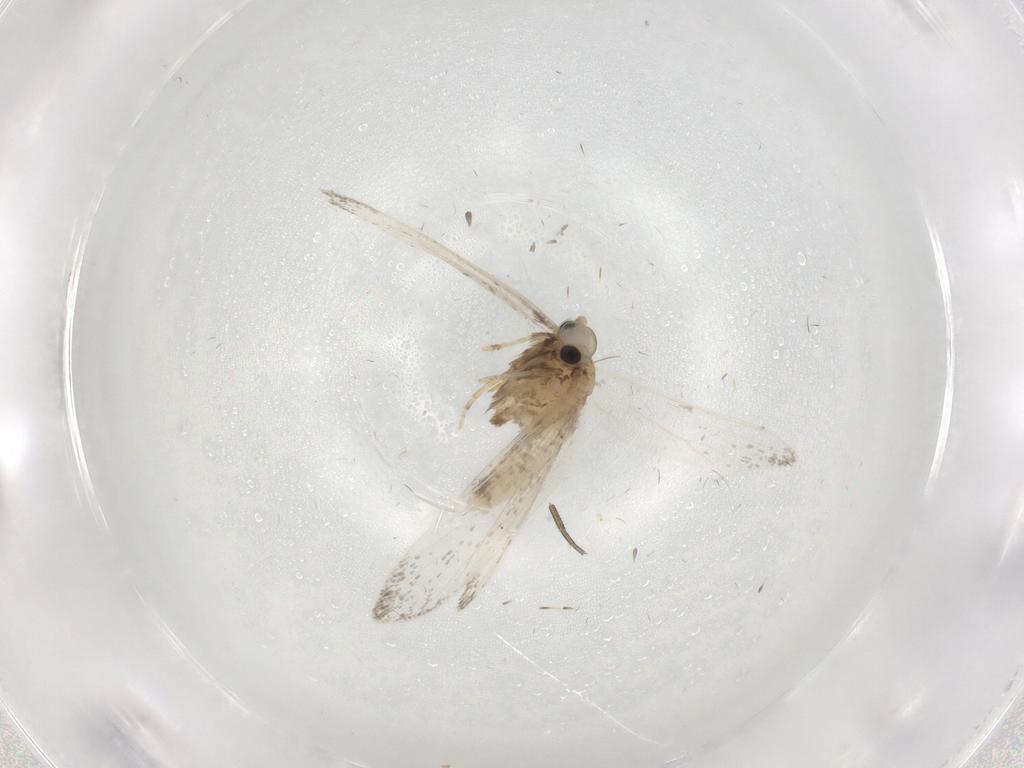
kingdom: Animalia
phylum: Arthropoda
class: Insecta
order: Lepidoptera
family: Psychidae
